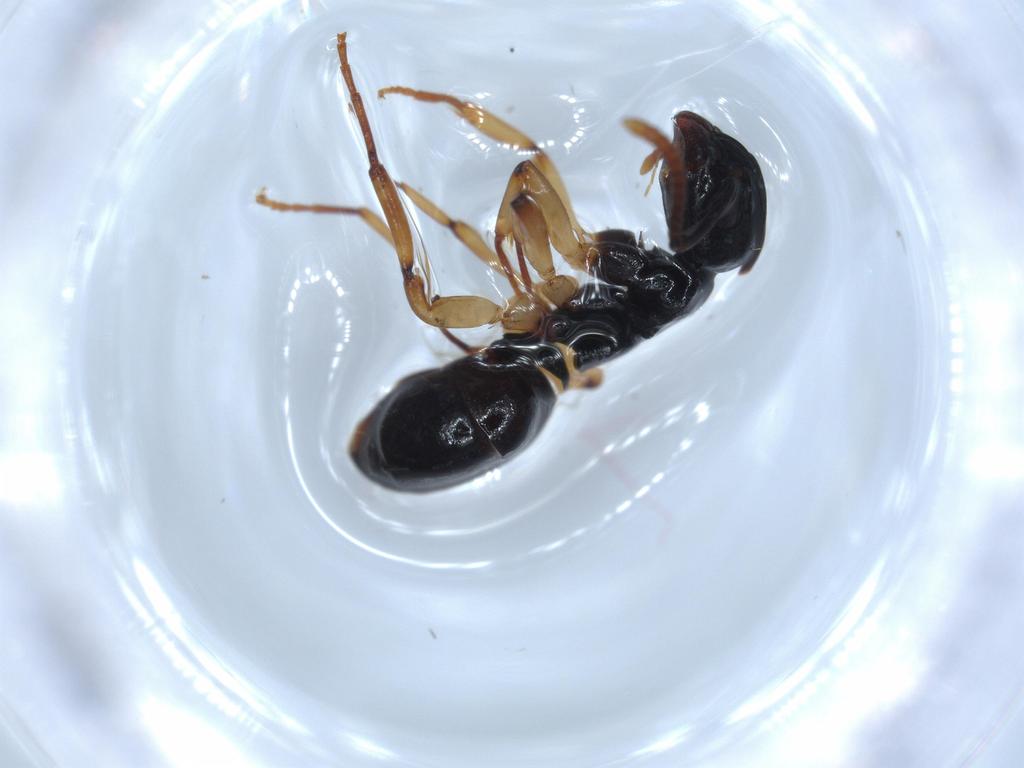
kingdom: Animalia
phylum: Arthropoda
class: Insecta
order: Hymenoptera
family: Formicidae
